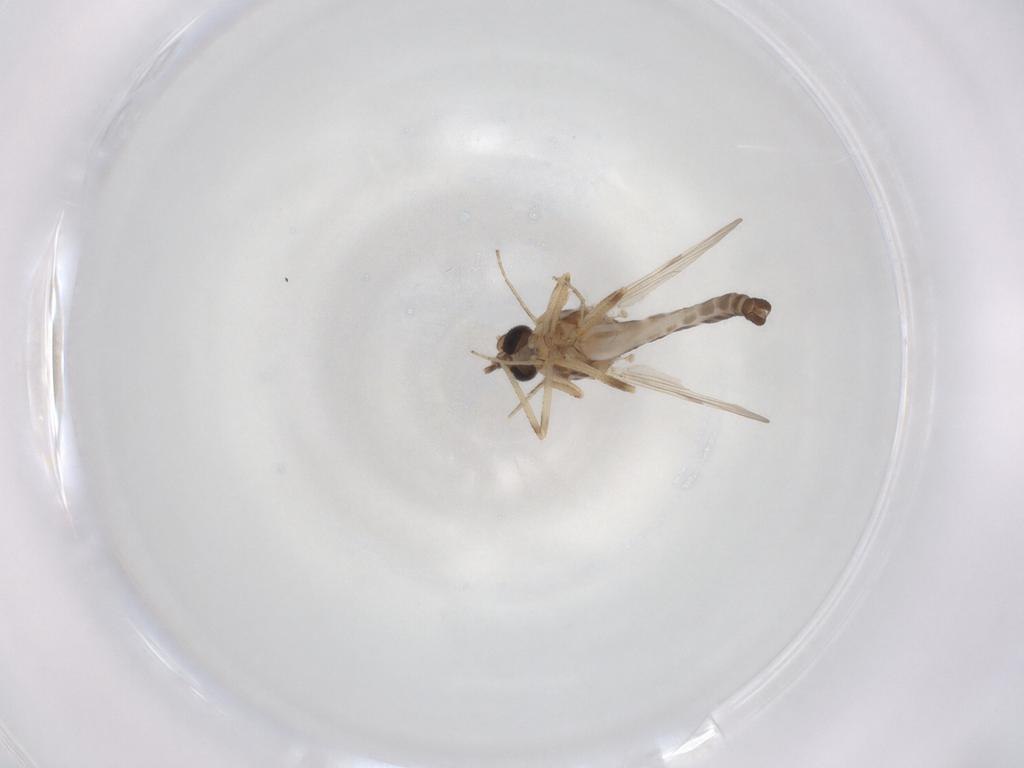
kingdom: Animalia
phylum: Arthropoda
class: Insecta
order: Diptera
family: Ceratopogonidae
